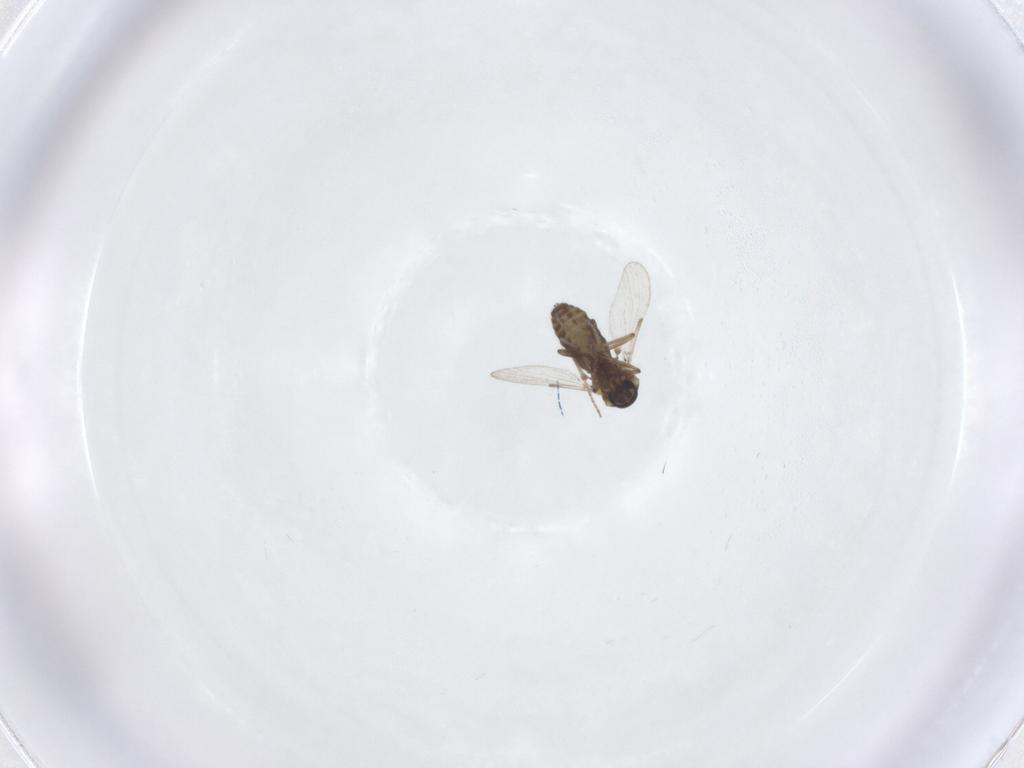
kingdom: Animalia
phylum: Arthropoda
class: Insecta
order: Diptera
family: Ceratopogonidae
